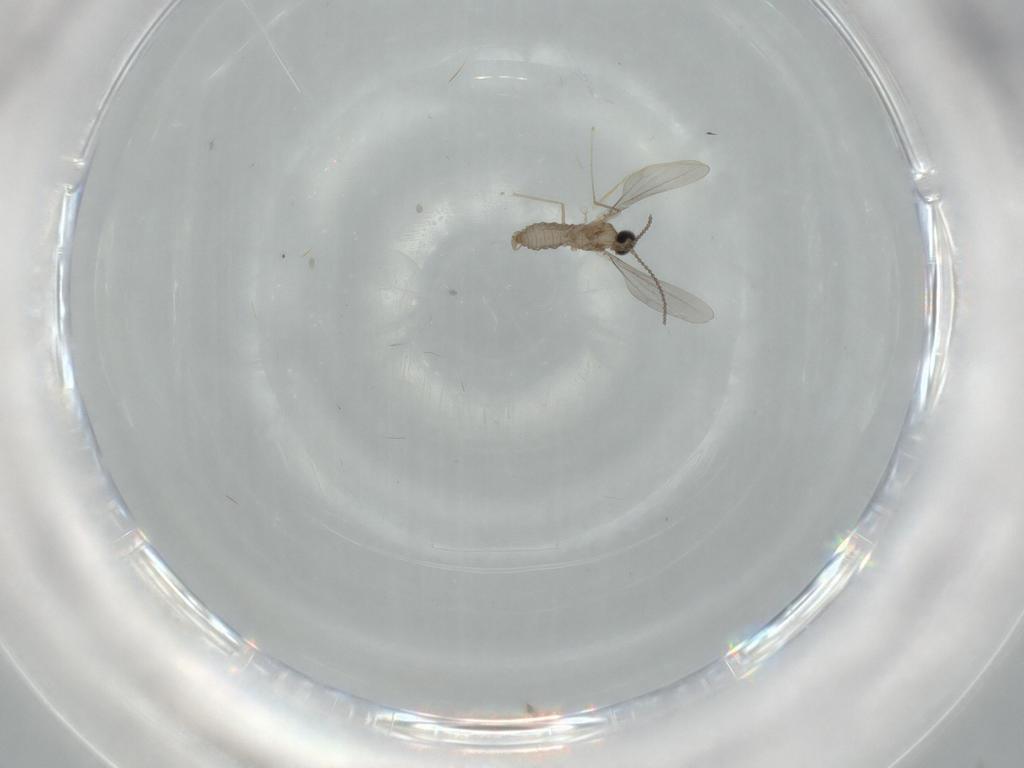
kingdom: Animalia
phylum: Arthropoda
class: Insecta
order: Diptera
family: Cecidomyiidae
